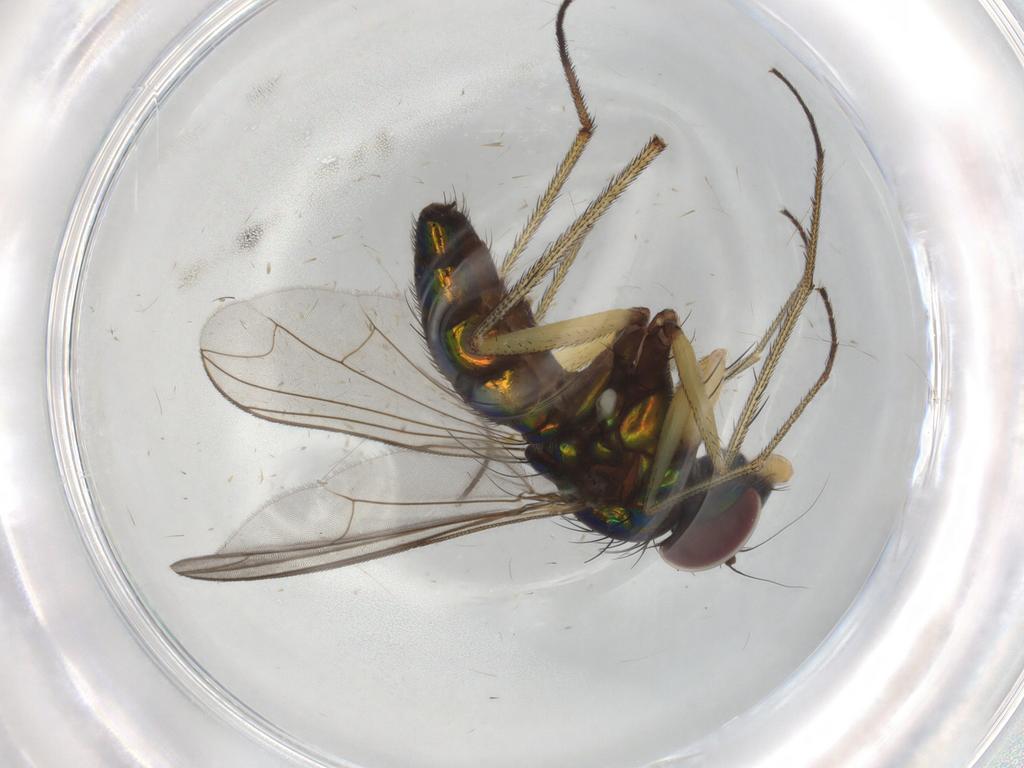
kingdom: Animalia
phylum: Arthropoda
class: Insecta
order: Diptera
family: Dolichopodidae
